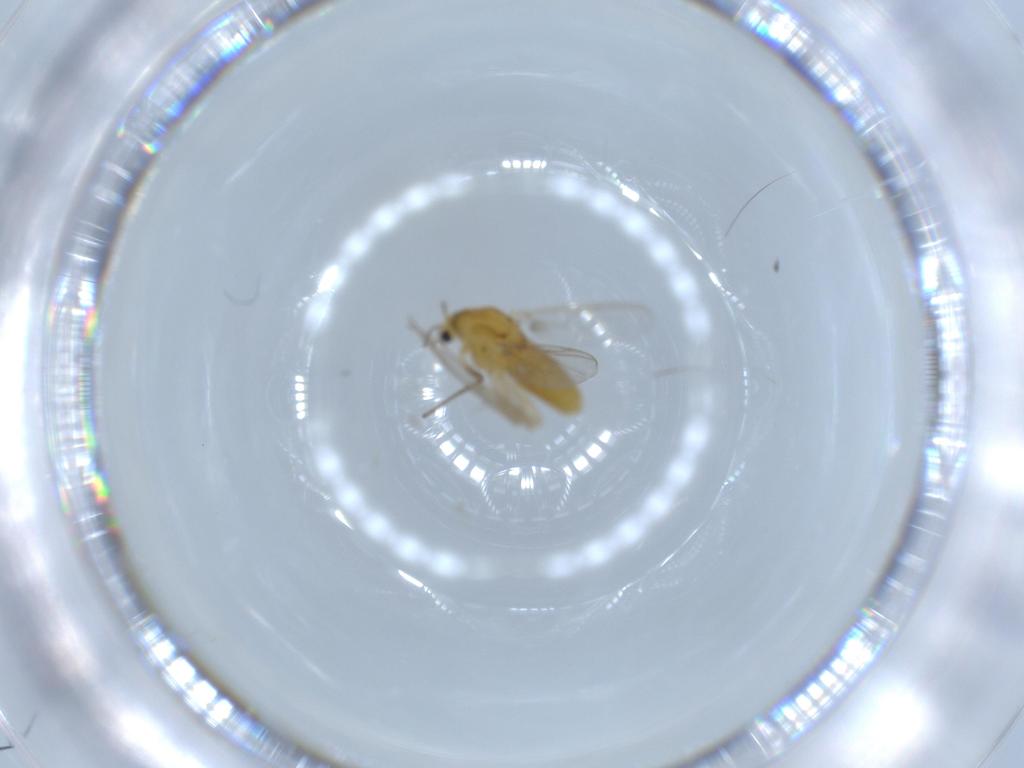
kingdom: Animalia
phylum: Arthropoda
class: Insecta
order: Diptera
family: Chironomidae
